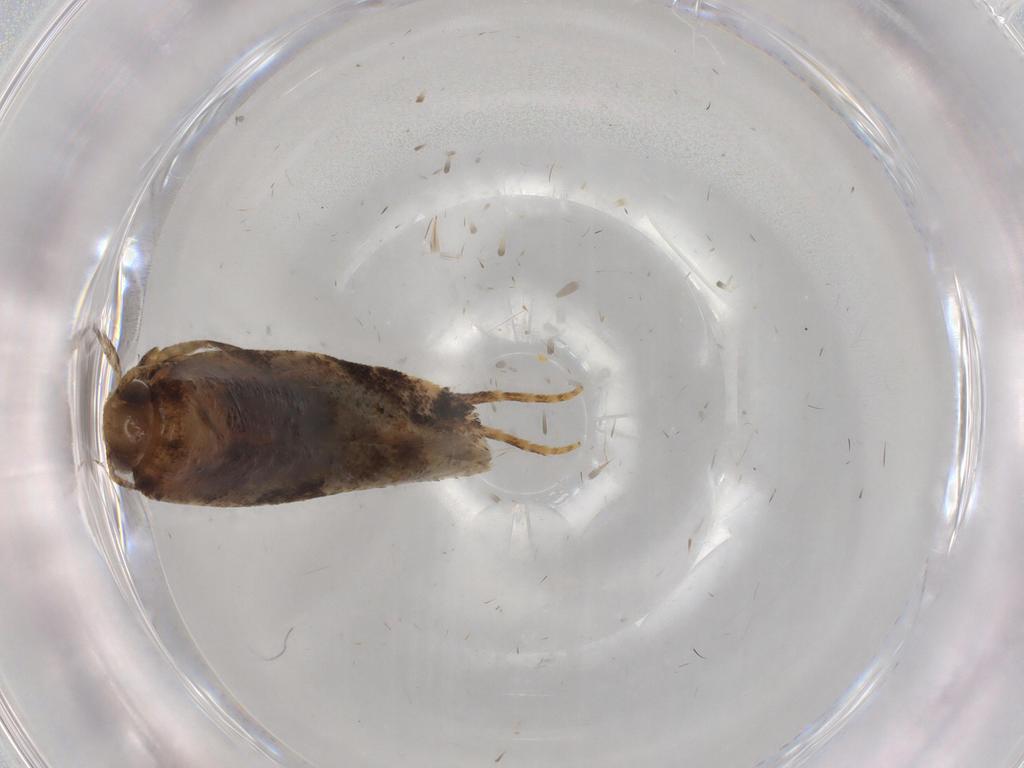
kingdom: Animalia
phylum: Arthropoda
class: Insecta
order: Lepidoptera
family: Gelechiidae
